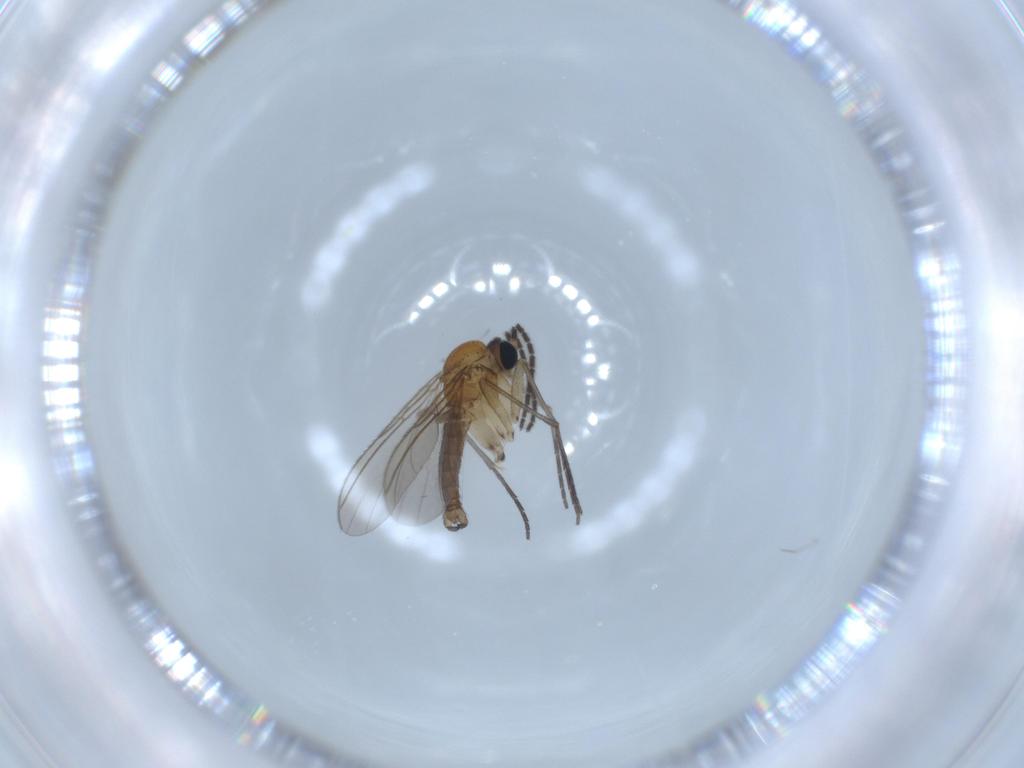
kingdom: Animalia
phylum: Arthropoda
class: Insecta
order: Diptera
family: Sciaridae
